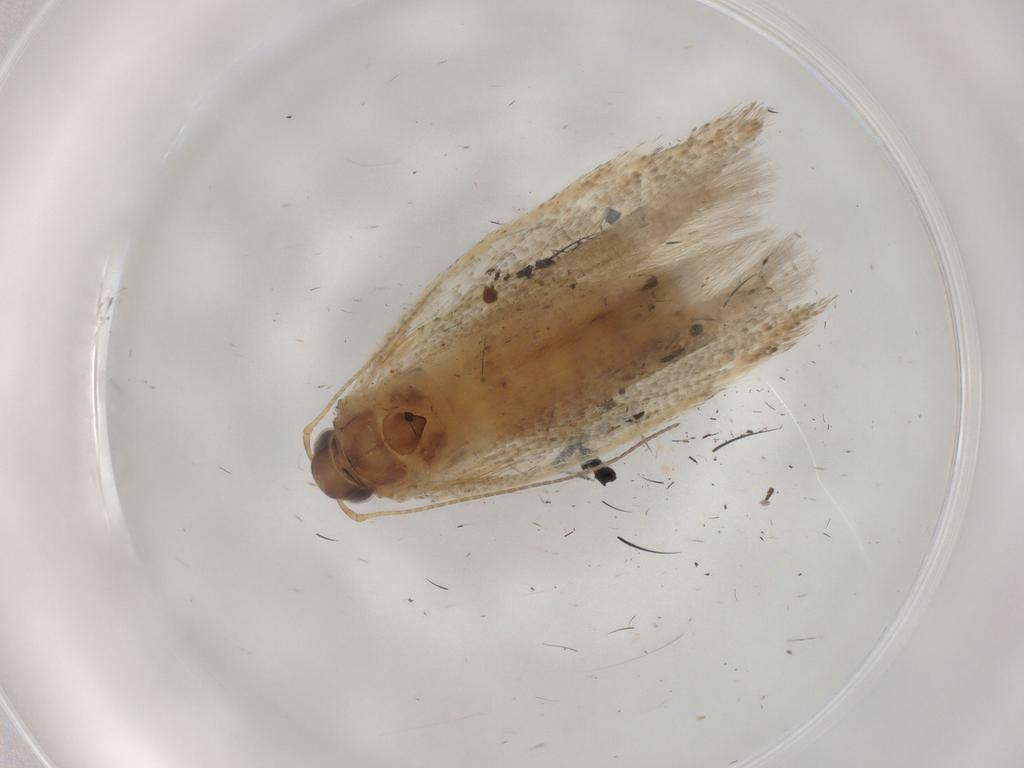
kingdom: Animalia
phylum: Arthropoda
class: Insecta
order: Lepidoptera
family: Gelechiidae
